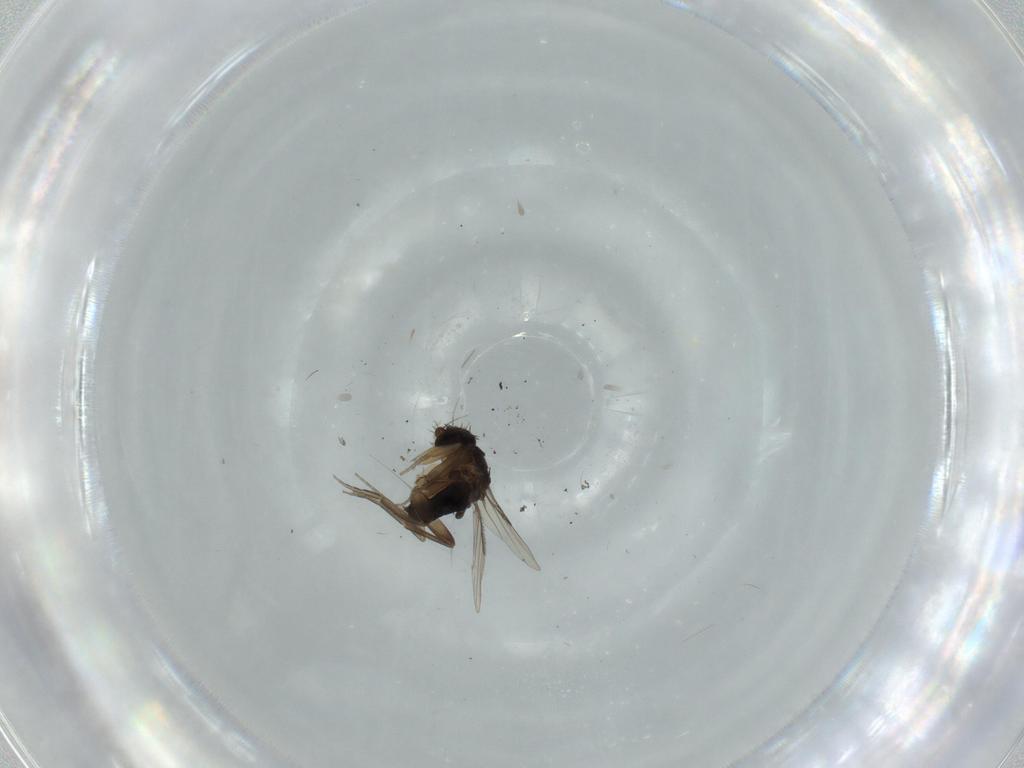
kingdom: Animalia
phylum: Arthropoda
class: Insecta
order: Diptera
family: Phoridae
